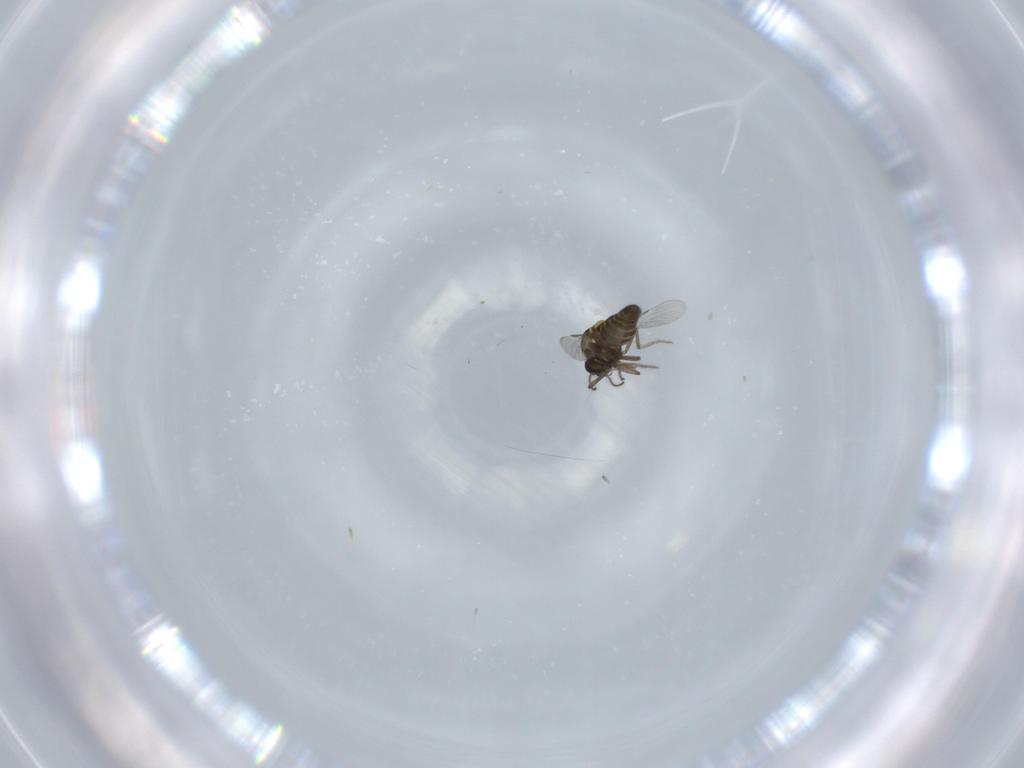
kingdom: Animalia
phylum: Arthropoda
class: Insecta
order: Diptera
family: Ceratopogonidae
